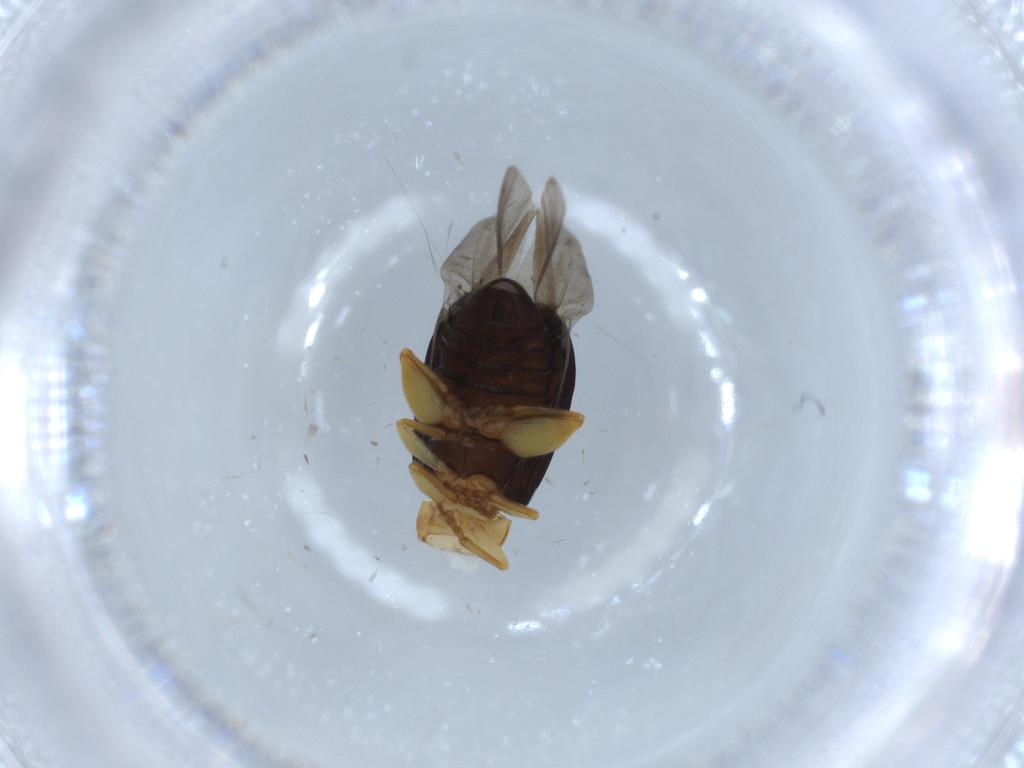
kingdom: Animalia
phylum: Arthropoda
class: Insecta
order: Coleoptera
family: Chrysomelidae
